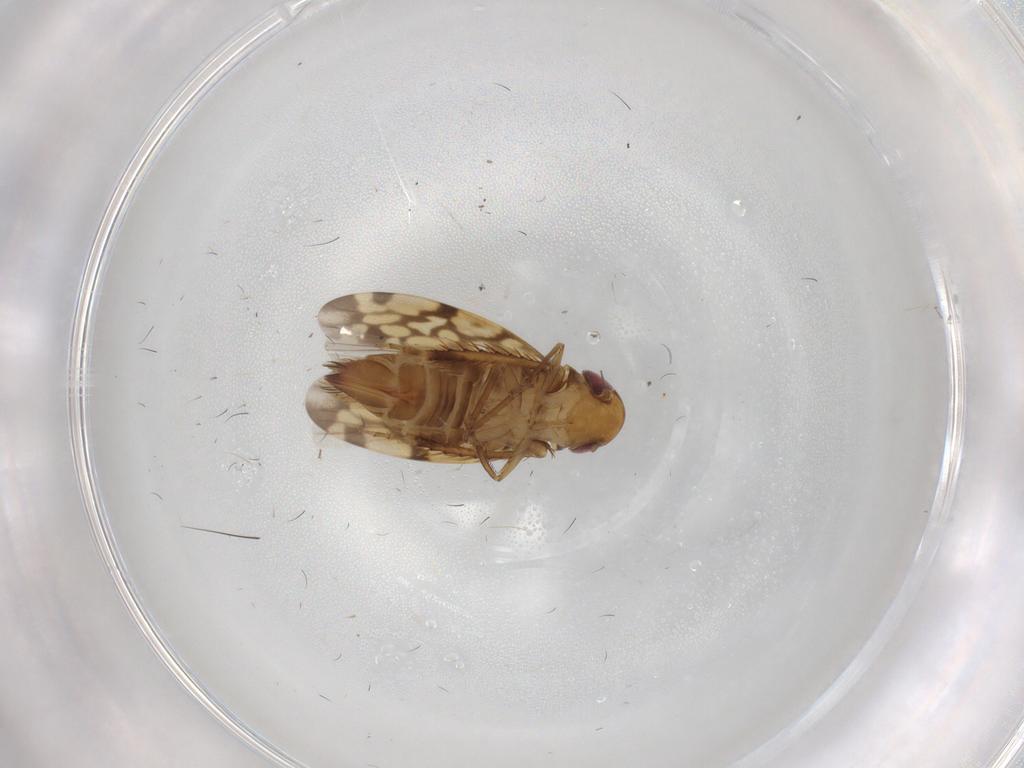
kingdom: Animalia
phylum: Arthropoda
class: Insecta
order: Hemiptera
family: Cicadellidae
